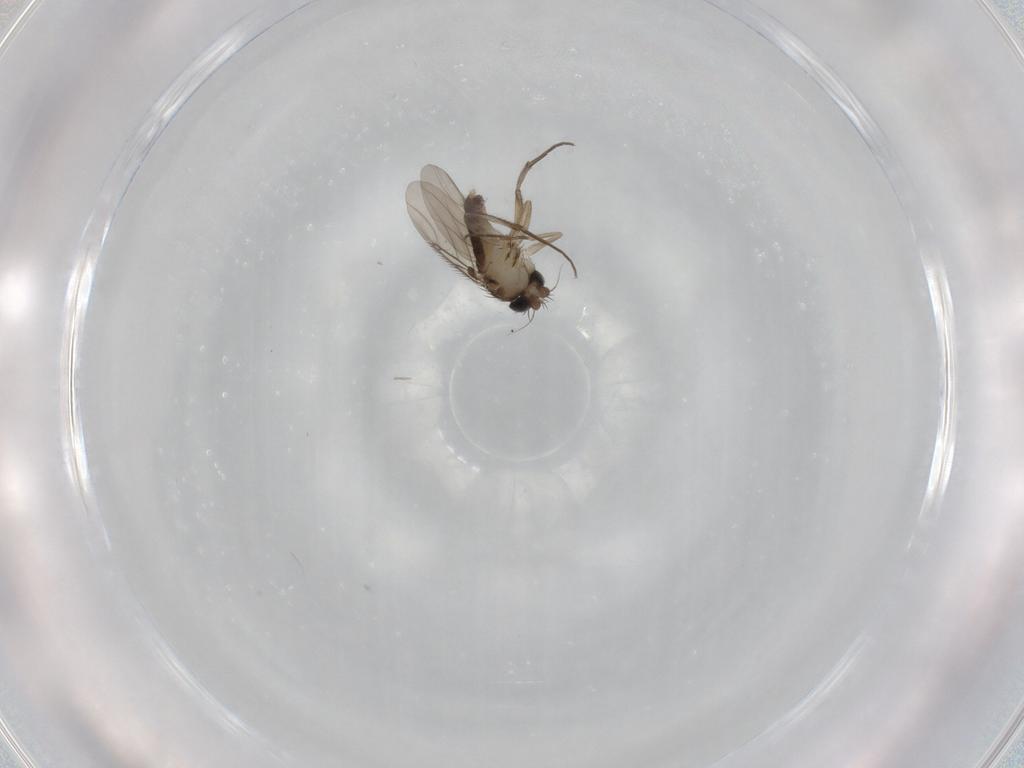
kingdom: Animalia
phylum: Arthropoda
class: Insecta
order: Diptera
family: Phoridae
